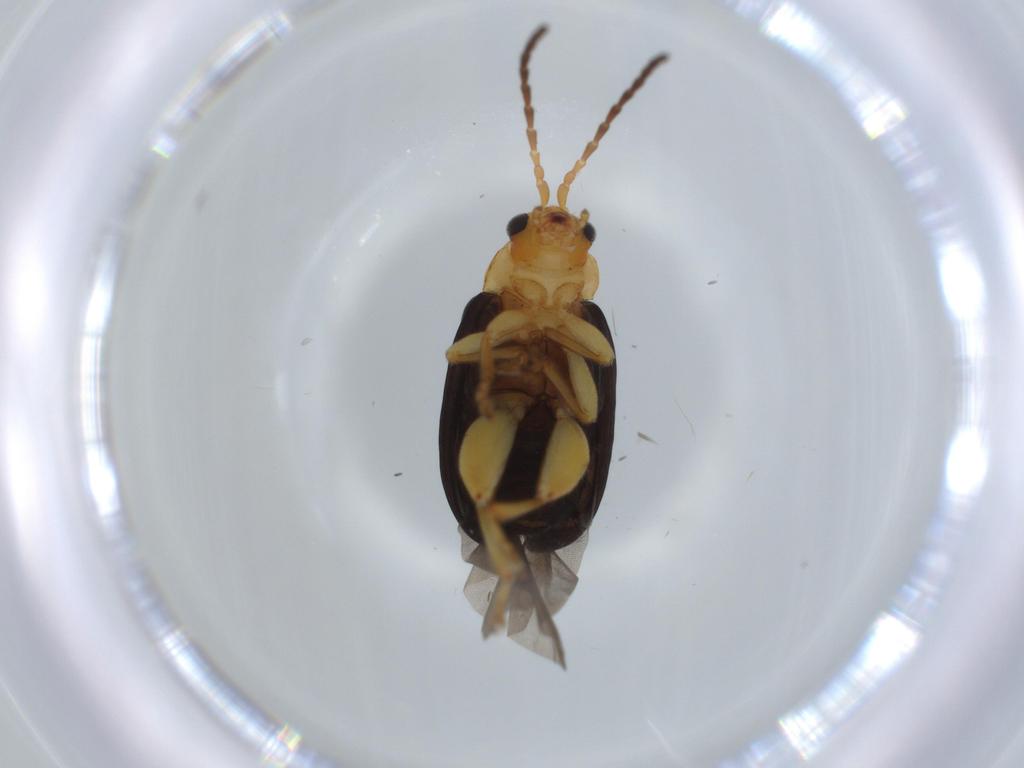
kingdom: Animalia
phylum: Arthropoda
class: Insecta
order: Coleoptera
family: Chrysomelidae
